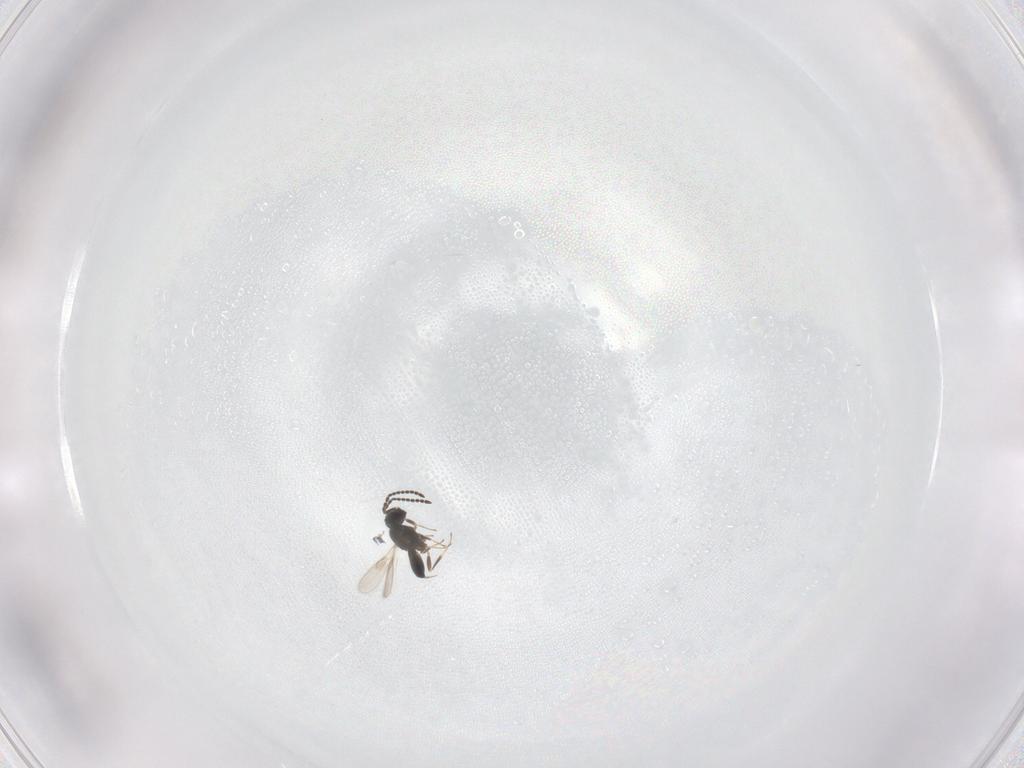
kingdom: Animalia
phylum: Arthropoda
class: Insecta
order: Hymenoptera
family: Scelionidae
